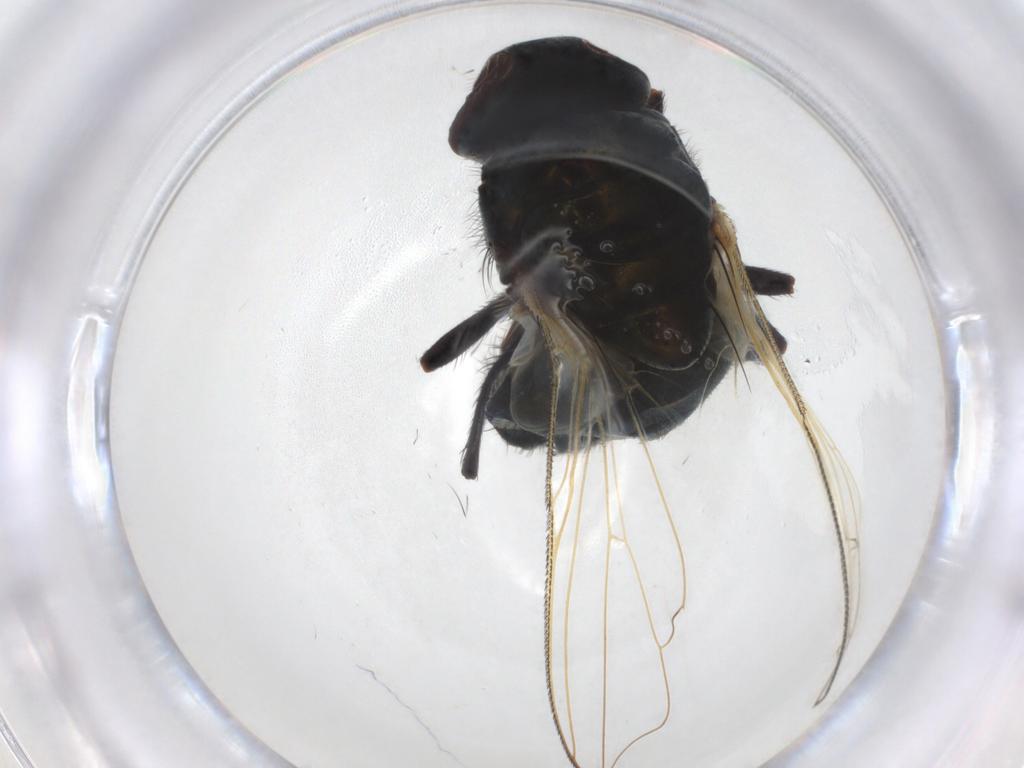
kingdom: Animalia
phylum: Arthropoda
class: Insecta
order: Diptera
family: Muscidae
